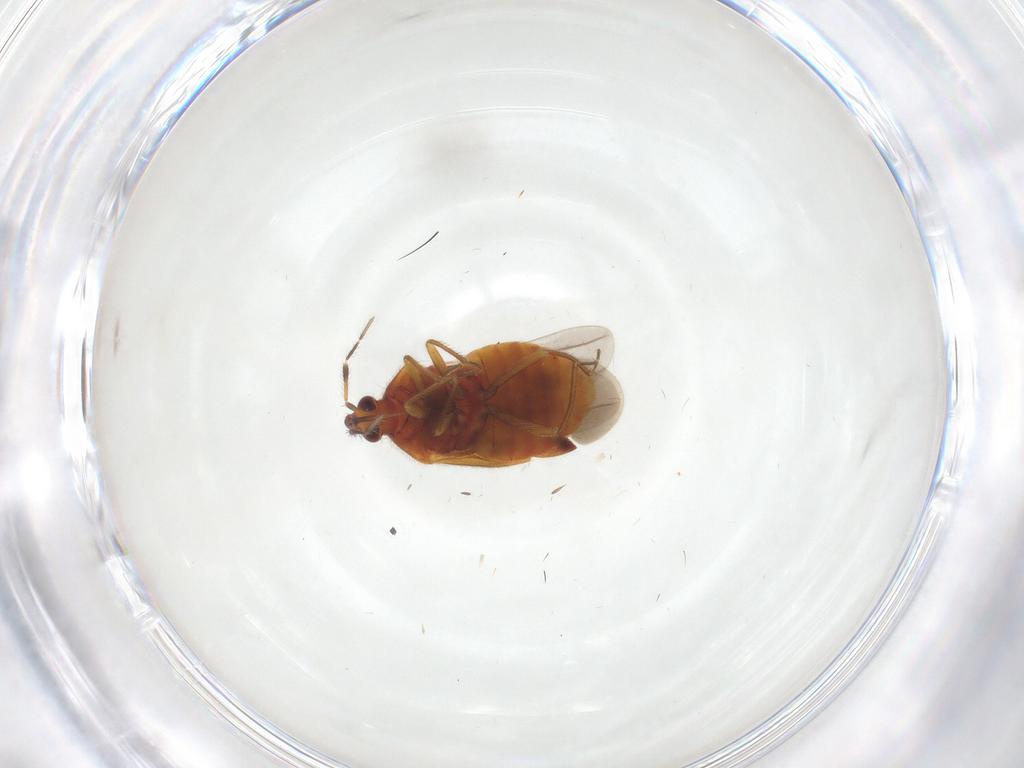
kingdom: Animalia
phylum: Arthropoda
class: Insecta
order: Hemiptera
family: Anthocoridae
